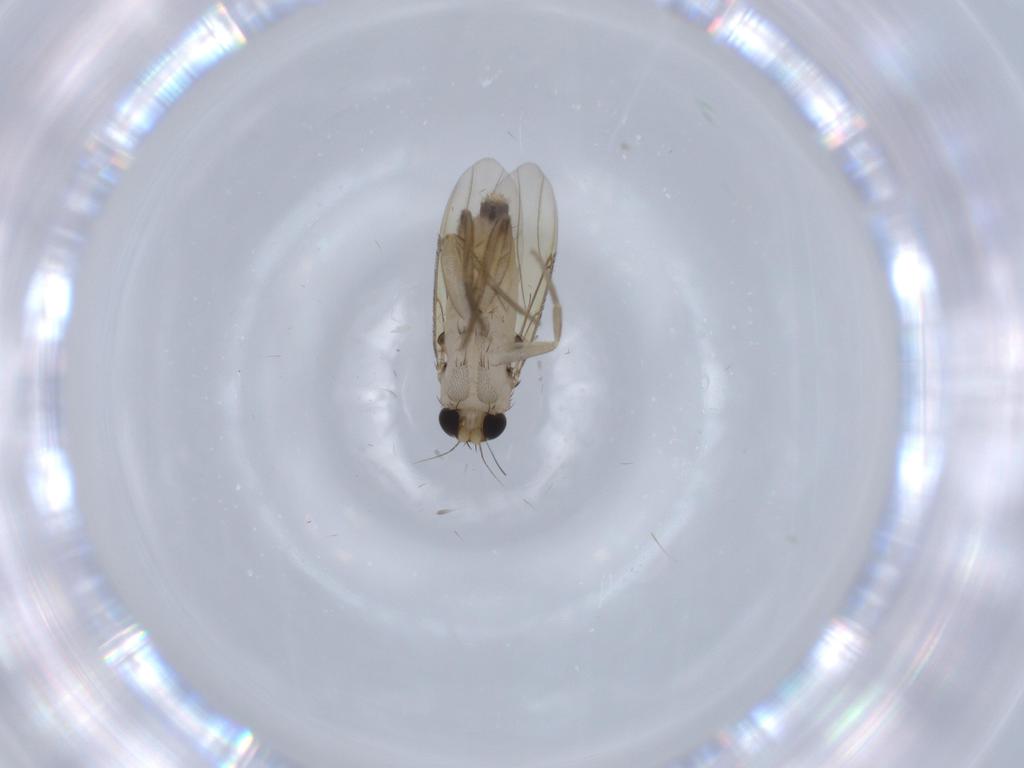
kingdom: Animalia
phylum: Arthropoda
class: Insecta
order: Diptera
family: Phoridae
